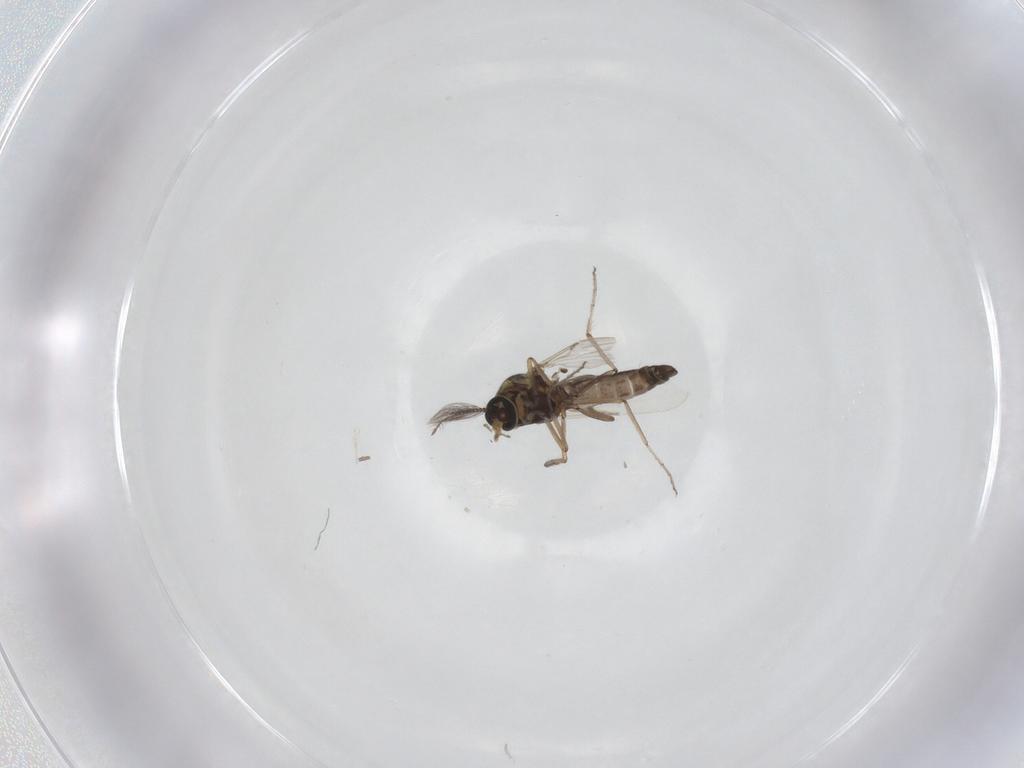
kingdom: Animalia
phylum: Arthropoda
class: Insecta
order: Diptera
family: Ceratopogonidae
